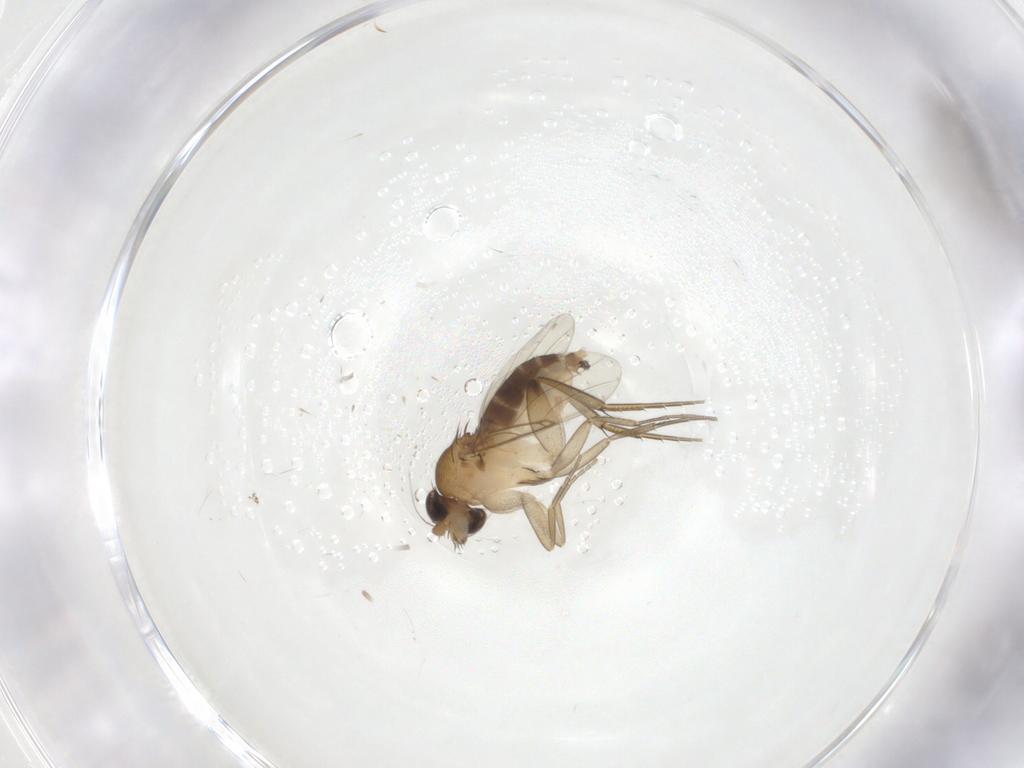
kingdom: Animalia
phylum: Arthropoda
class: Insecta
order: Diptera
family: Phoridae
